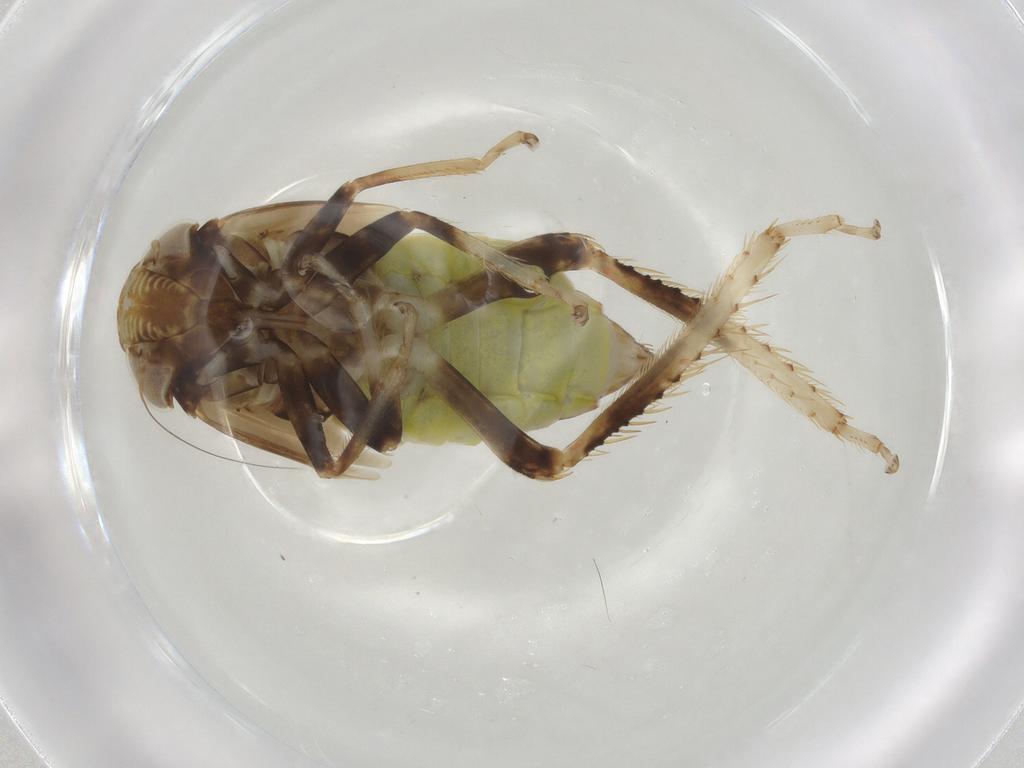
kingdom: Animalia
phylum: Arthropoda
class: Insecta
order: Hemiptera
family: Cicadellidae
